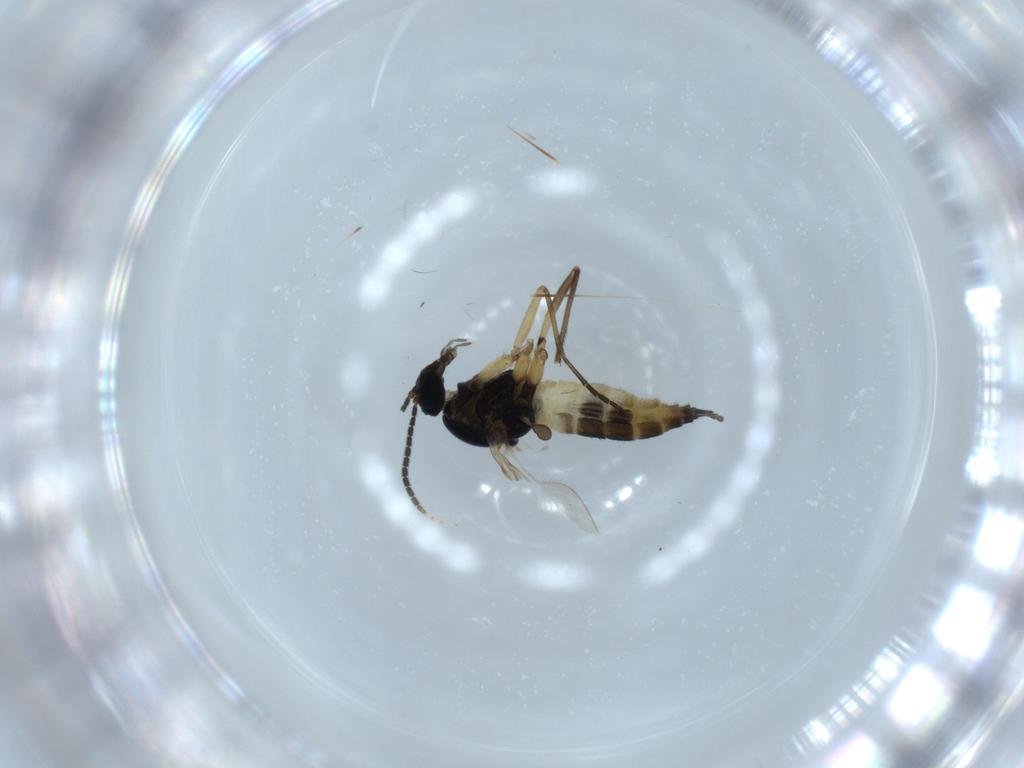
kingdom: Animalia
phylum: Arthropoda
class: Insecta
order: Diptera
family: Sciaridae
